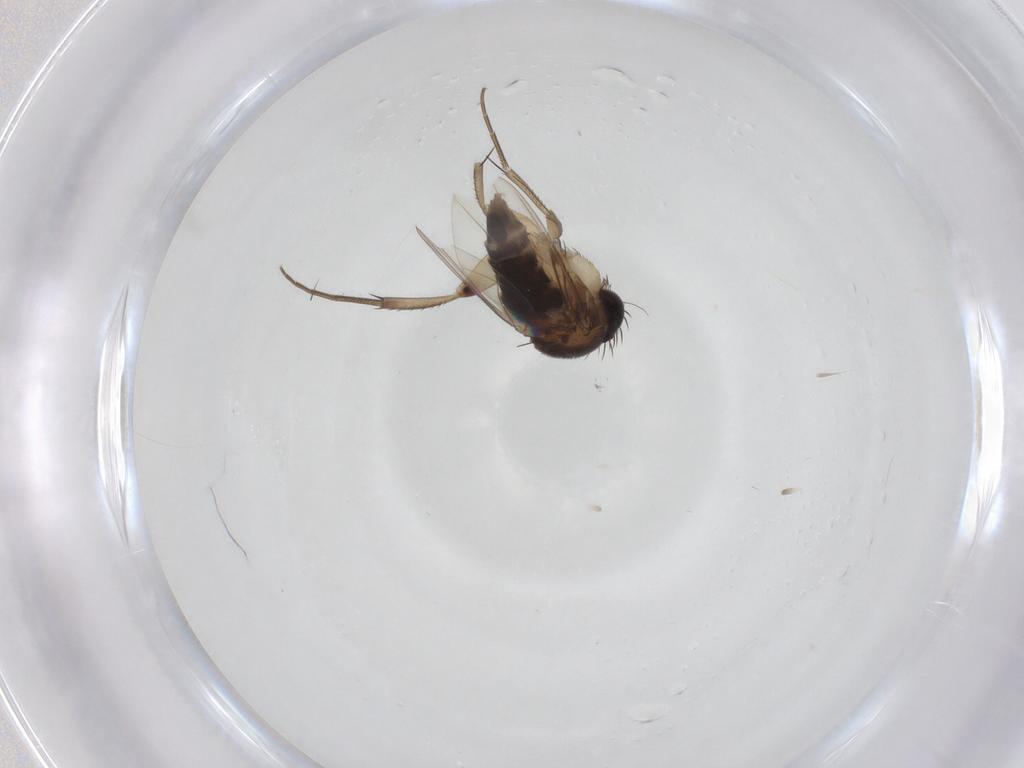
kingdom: Animalia
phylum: Arthropoda
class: Insecta
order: Diptera
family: Phoridae
